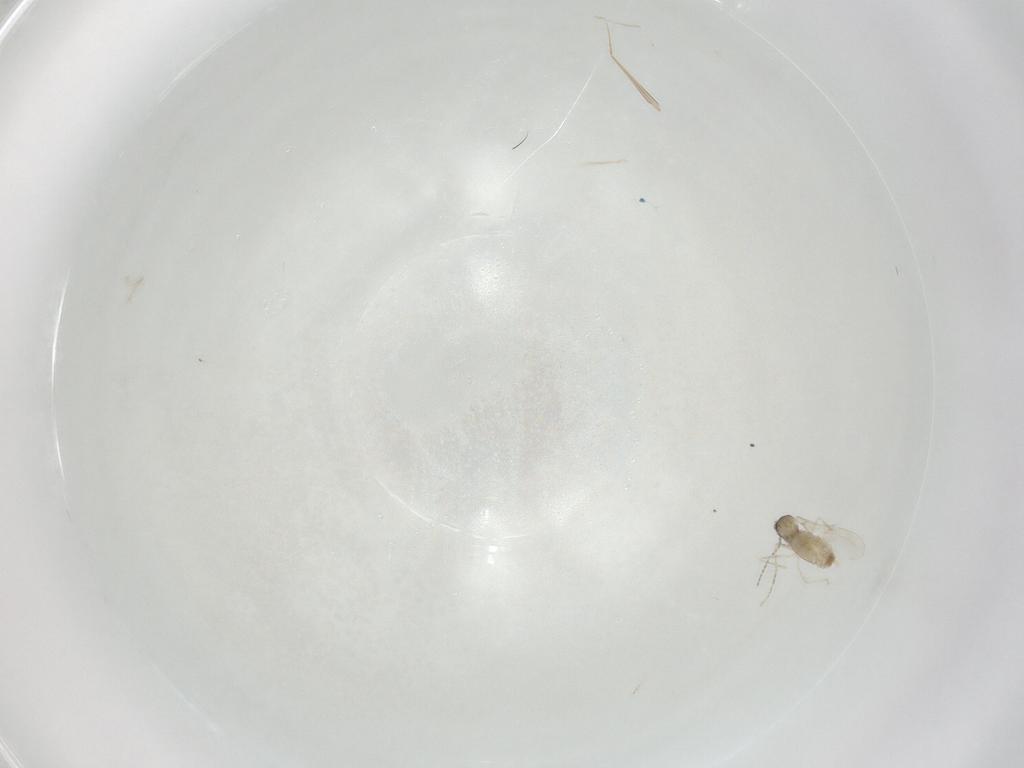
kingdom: Animalia
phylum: Arthropoda
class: Insecta
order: Diptera
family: Cecidomyiidae
